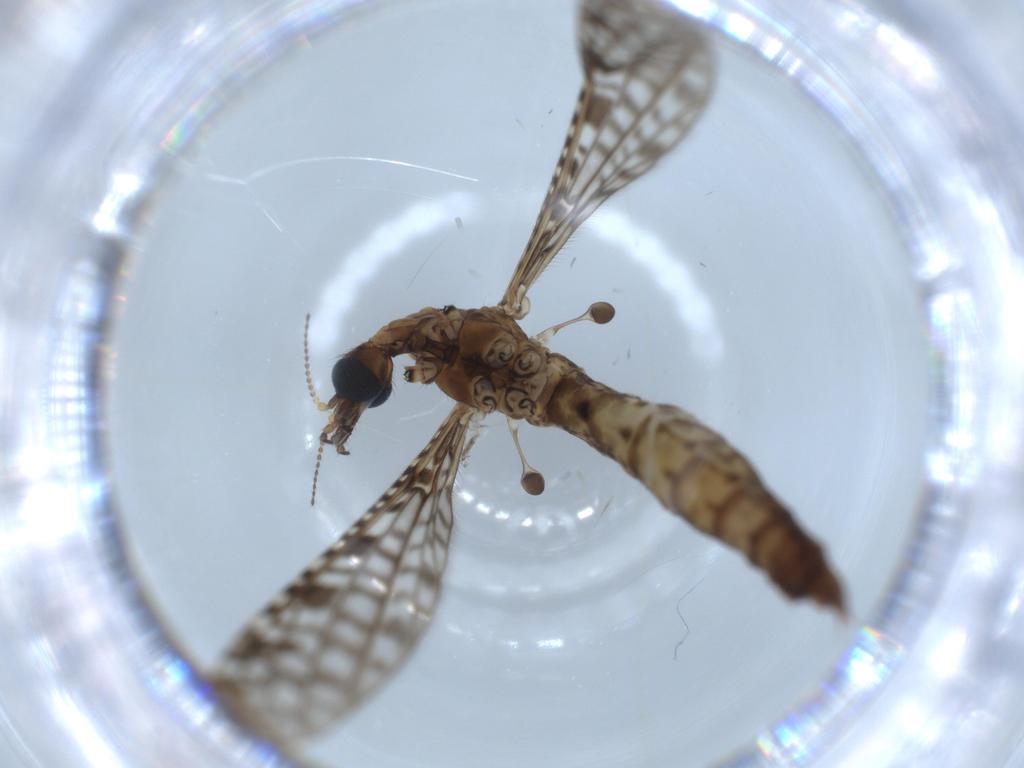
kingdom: Animalia
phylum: Arthropoda
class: Insecta
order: Diptera
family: Limoniidae
